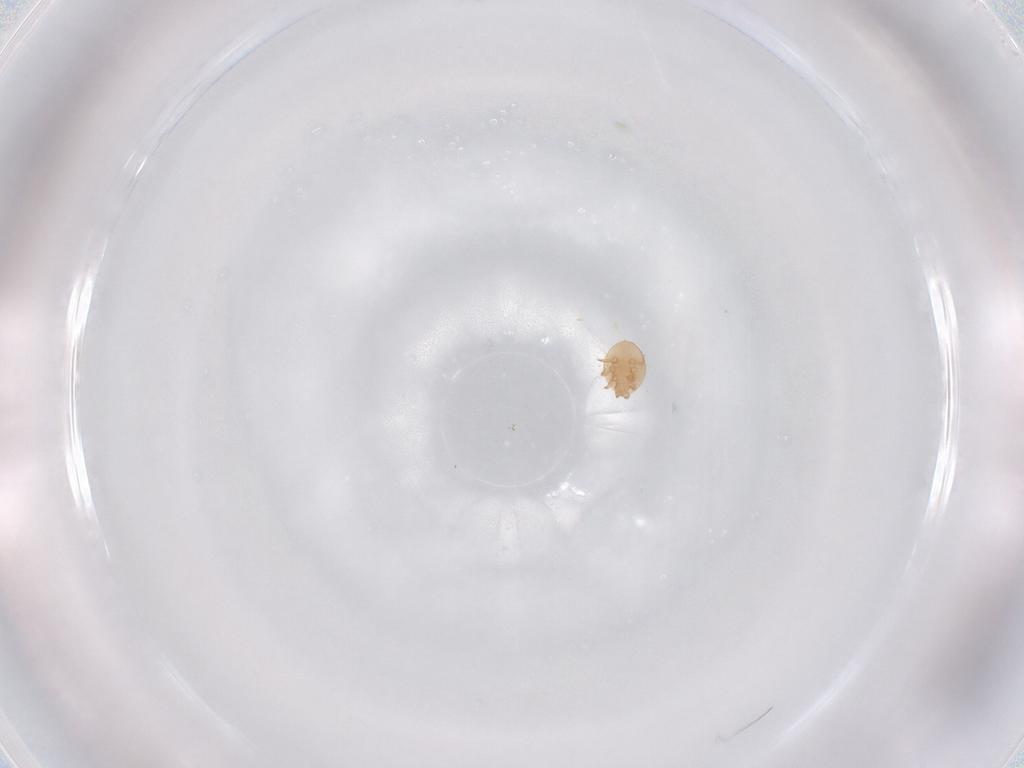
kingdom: Animalia
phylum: Arthropoda
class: Arachnida
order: Mesostigmata
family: Trematuridae
